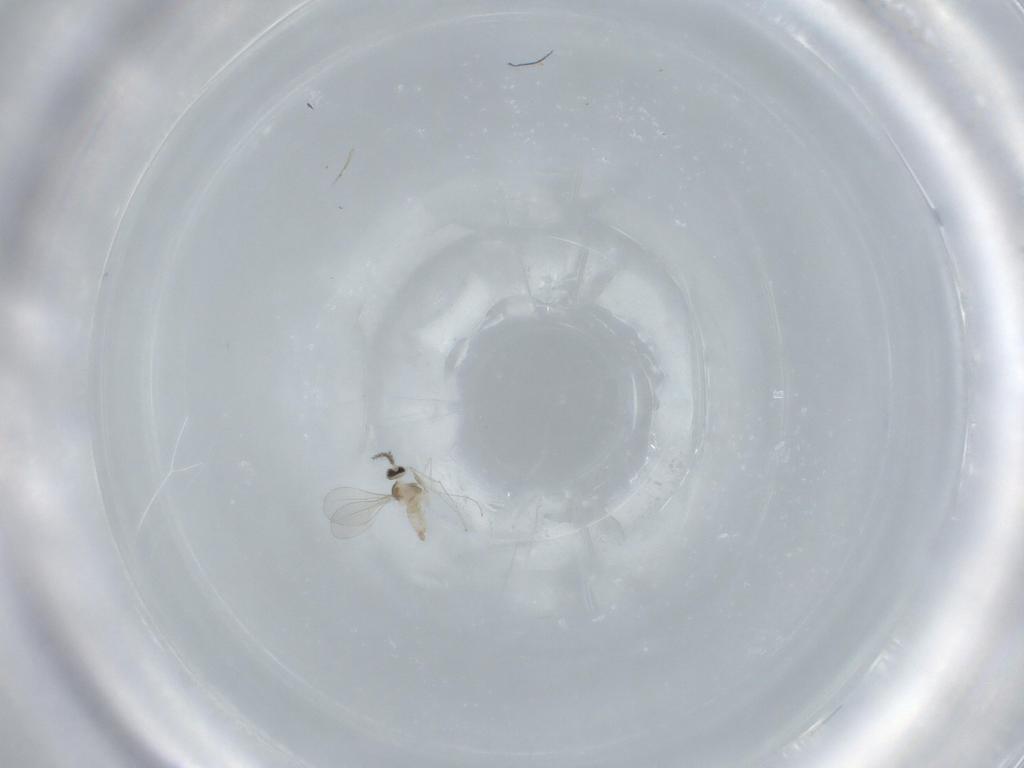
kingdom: Animalia
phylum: Arthropoda
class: Insecta
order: Diptera
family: Cecidomyiidae
